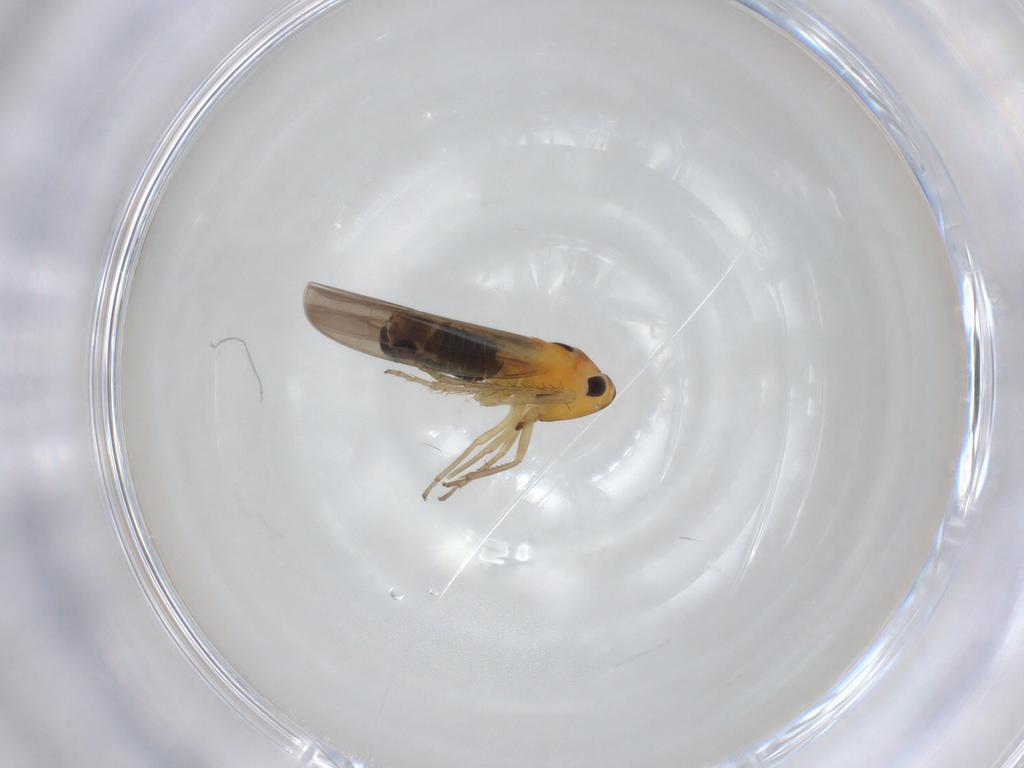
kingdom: Animalia
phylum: Arthropoda
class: Insecta
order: Hemiptera
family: Cicadellidae
